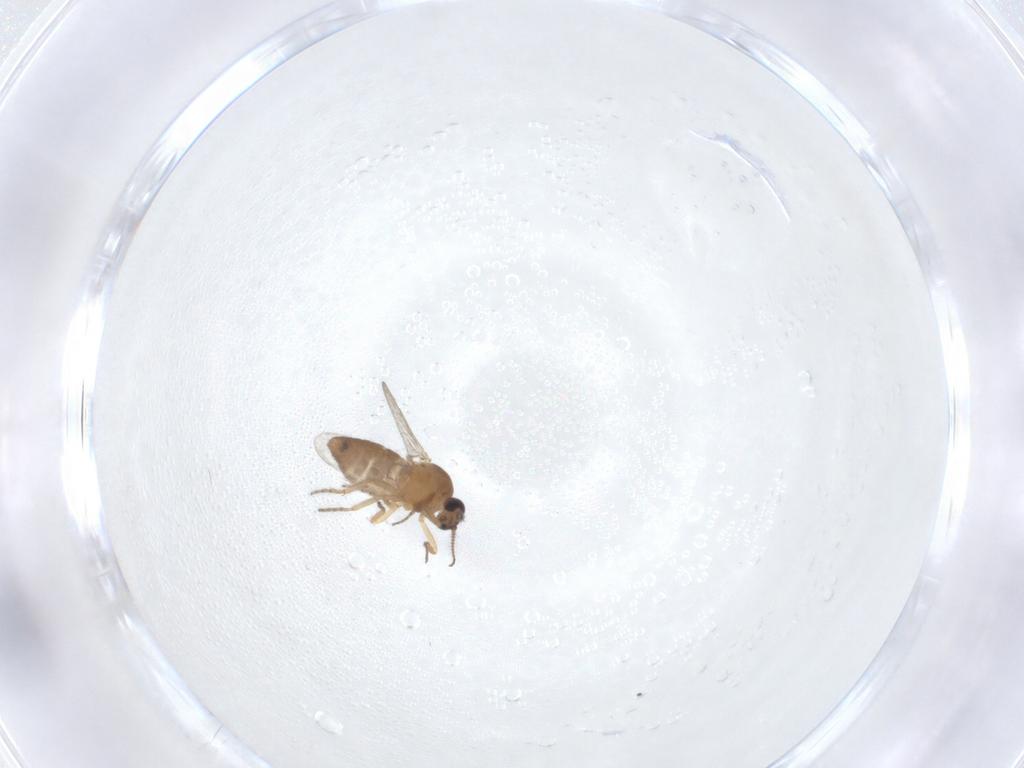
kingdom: Animalia
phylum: Arthropoda
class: Insecta
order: Diptera
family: Ceratopogonidae
